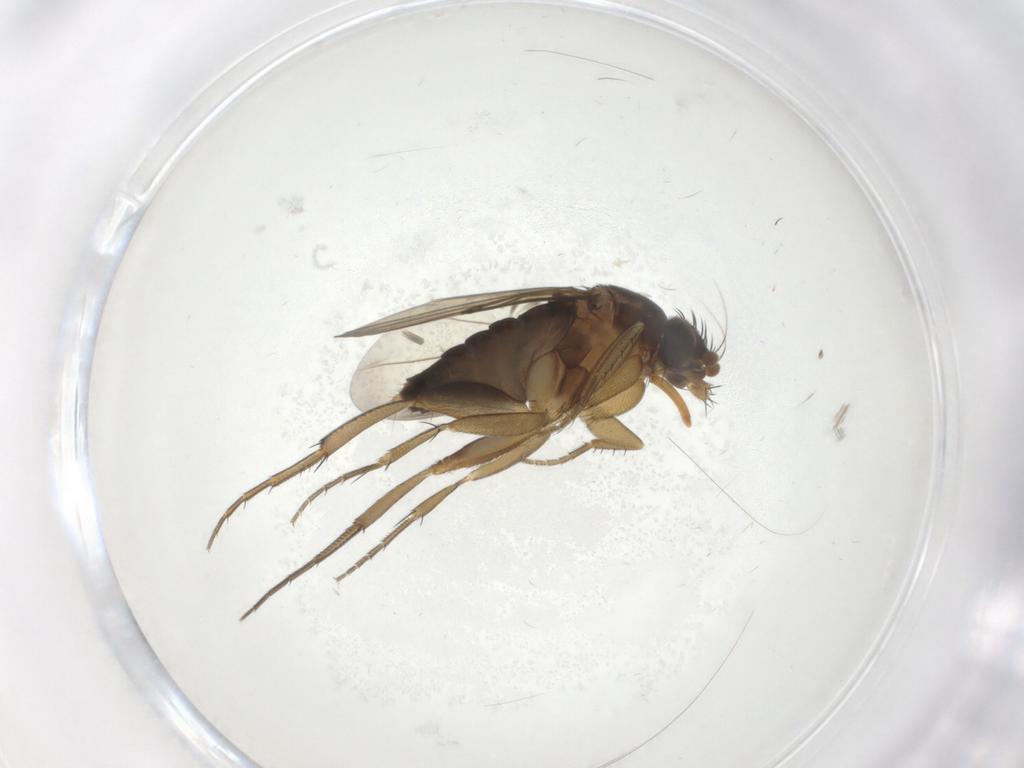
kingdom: Animalia
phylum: Arthropoda
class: Insecta
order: Diptera
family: Phoridae
